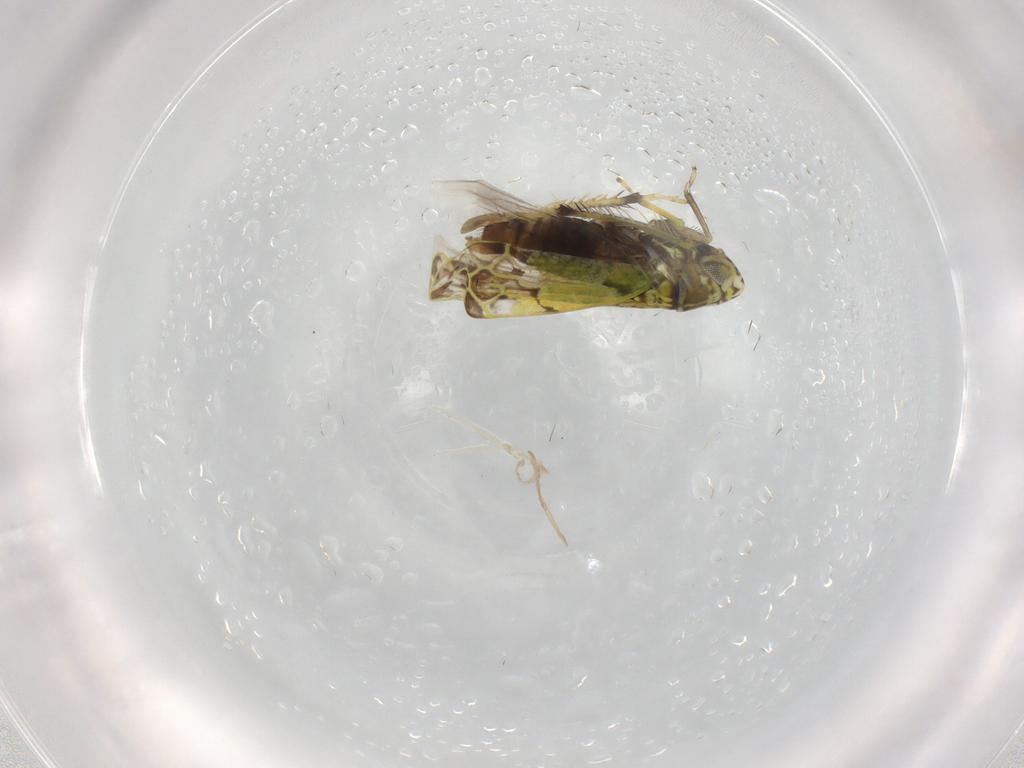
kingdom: Animalia
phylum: Arthropoda
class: Insecta
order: Hemiptera
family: Cicadellidae
